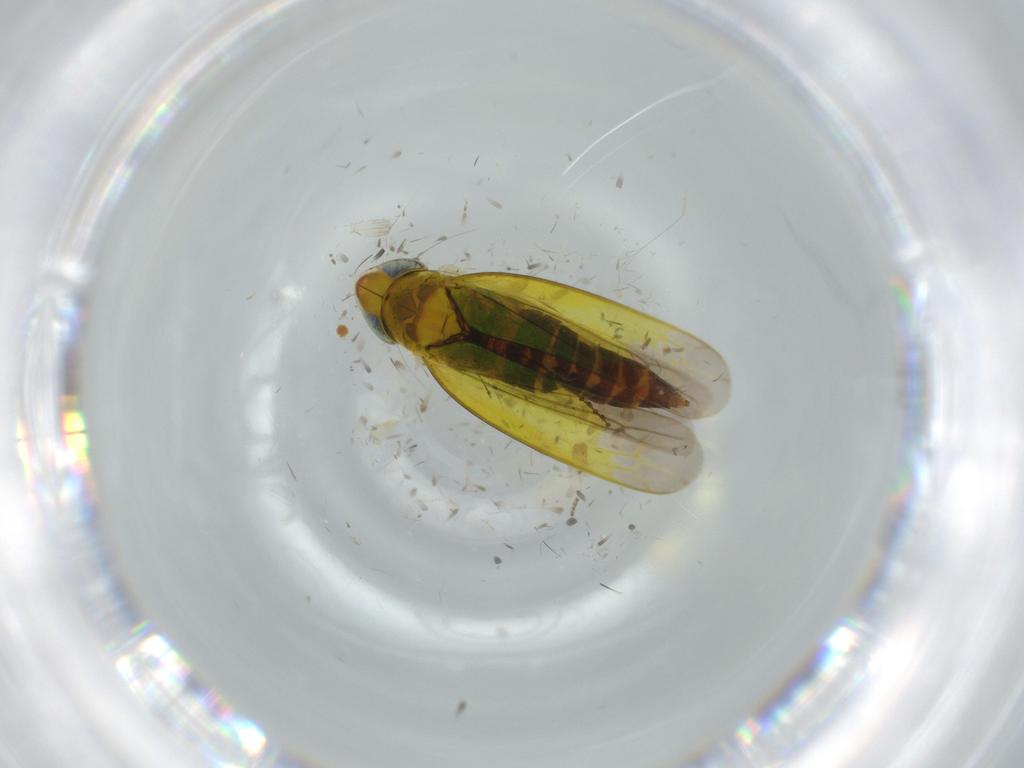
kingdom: Animalia
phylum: Arthropoda
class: Insecta
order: Hemiptera
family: Cicadellidae
